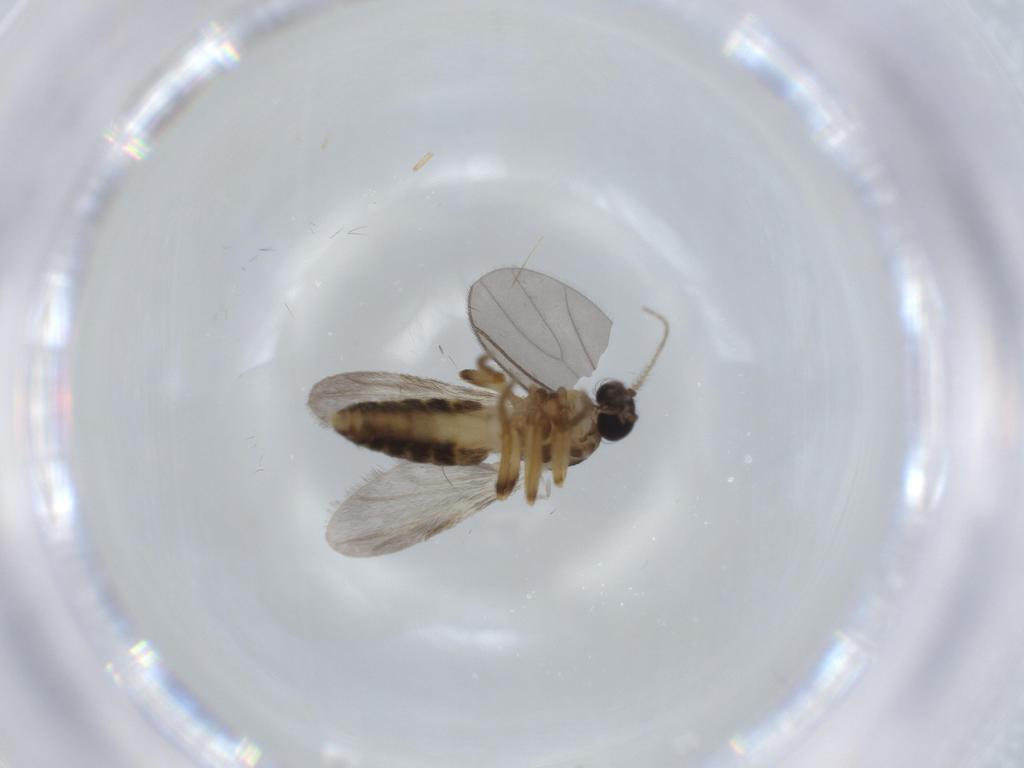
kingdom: Animalia
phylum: Arthropoda
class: Insecta
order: Diptera
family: Ceratopogonidae
